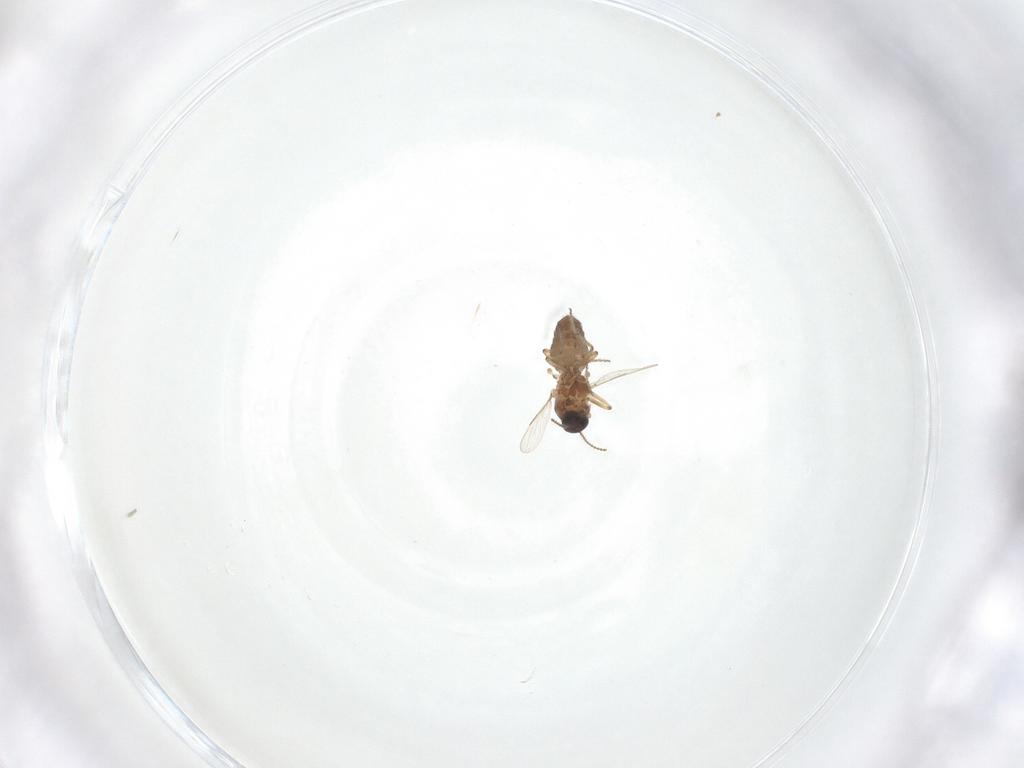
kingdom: Animalia
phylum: Arthropoda
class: Insecta
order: Diptera
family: Ceratopogonidae
